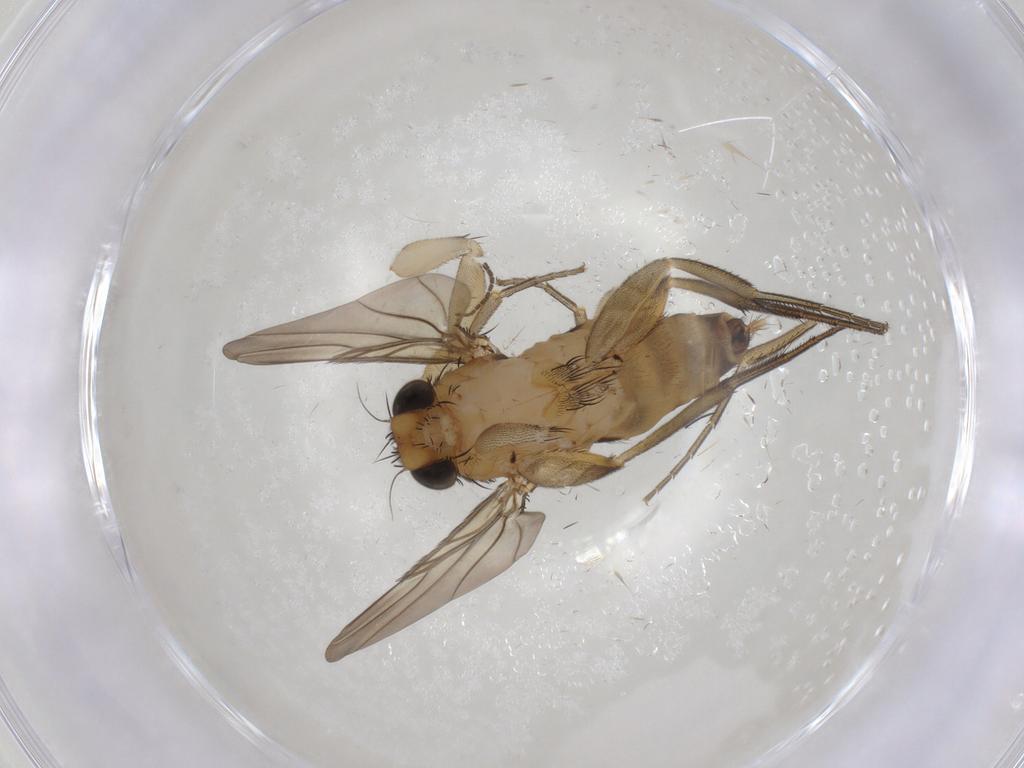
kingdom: Animalia
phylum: Arthropoda
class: Insecta
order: Diptera
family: Sciaridae
